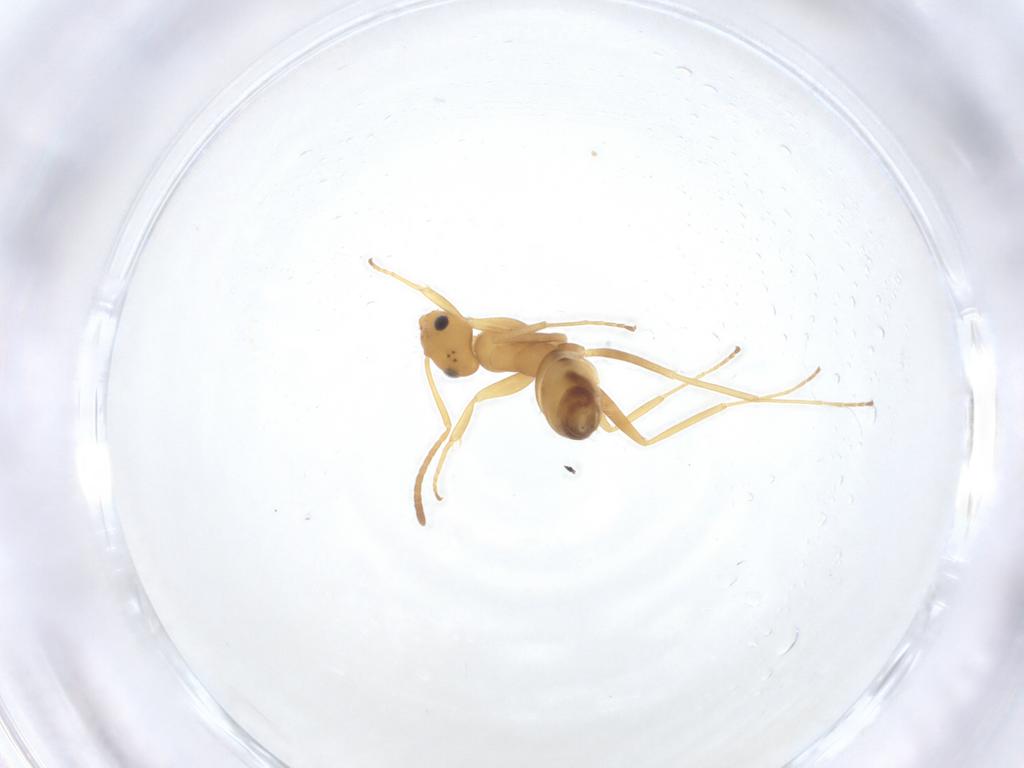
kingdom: Animalia
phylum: Arthropoda
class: Insecta
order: Hymenoptera
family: Formicidae
